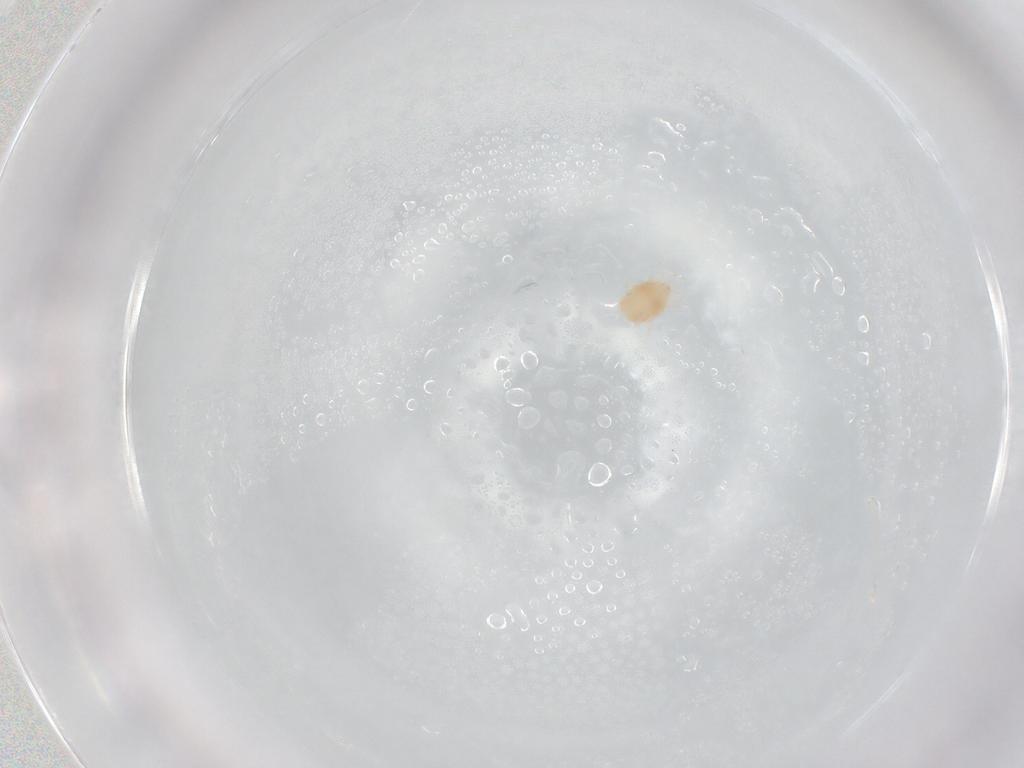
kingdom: Animalia
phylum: Arthropoda
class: Arachnida
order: Trombidiformes
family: Stigmaeidae
